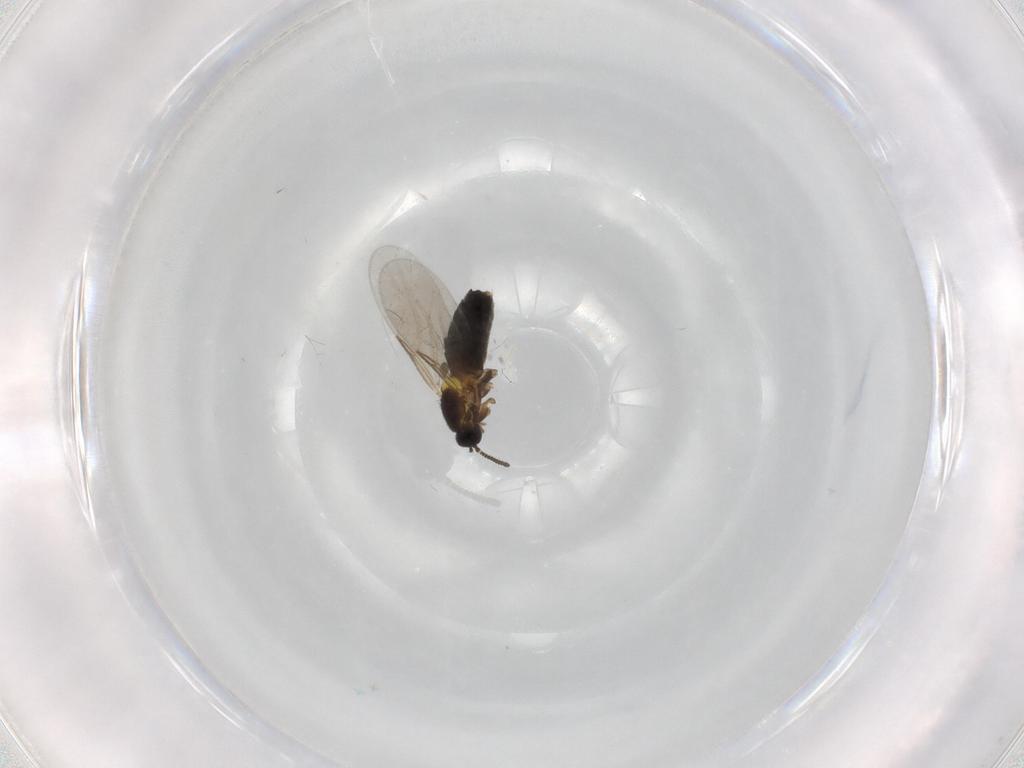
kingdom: Animalia
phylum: Arthropoda
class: Insecta
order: Diptera
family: Scatopsidae
